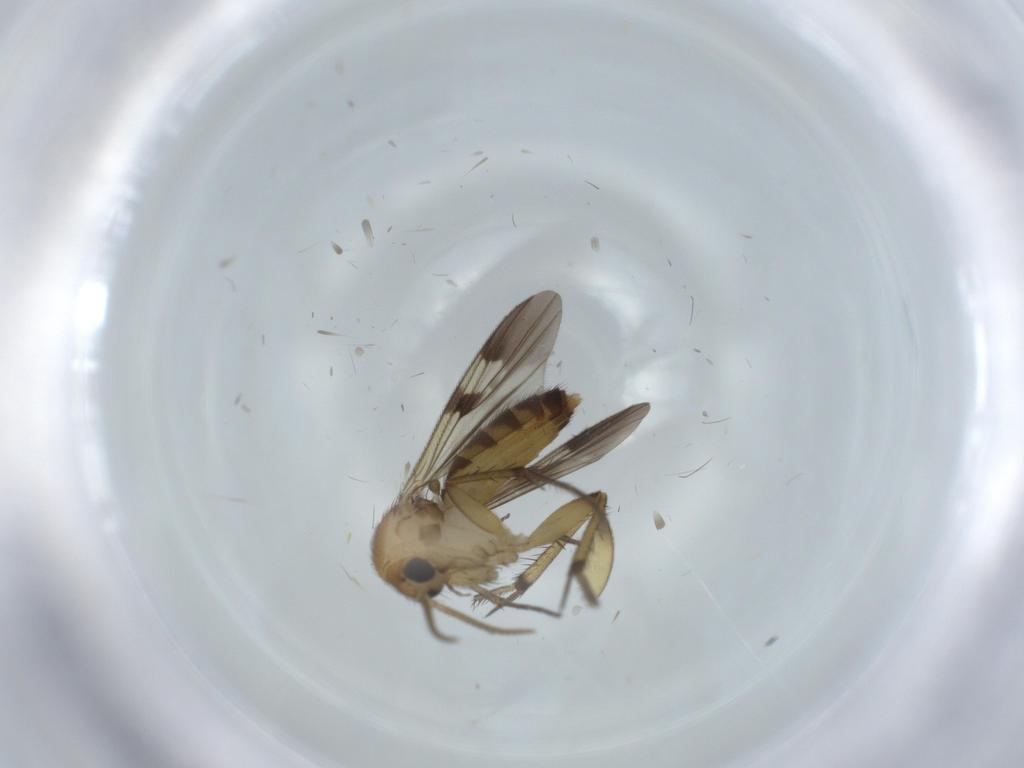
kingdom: Animalia
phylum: Arthropoda
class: Insecta
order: Diptera
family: Mycetophilidae
